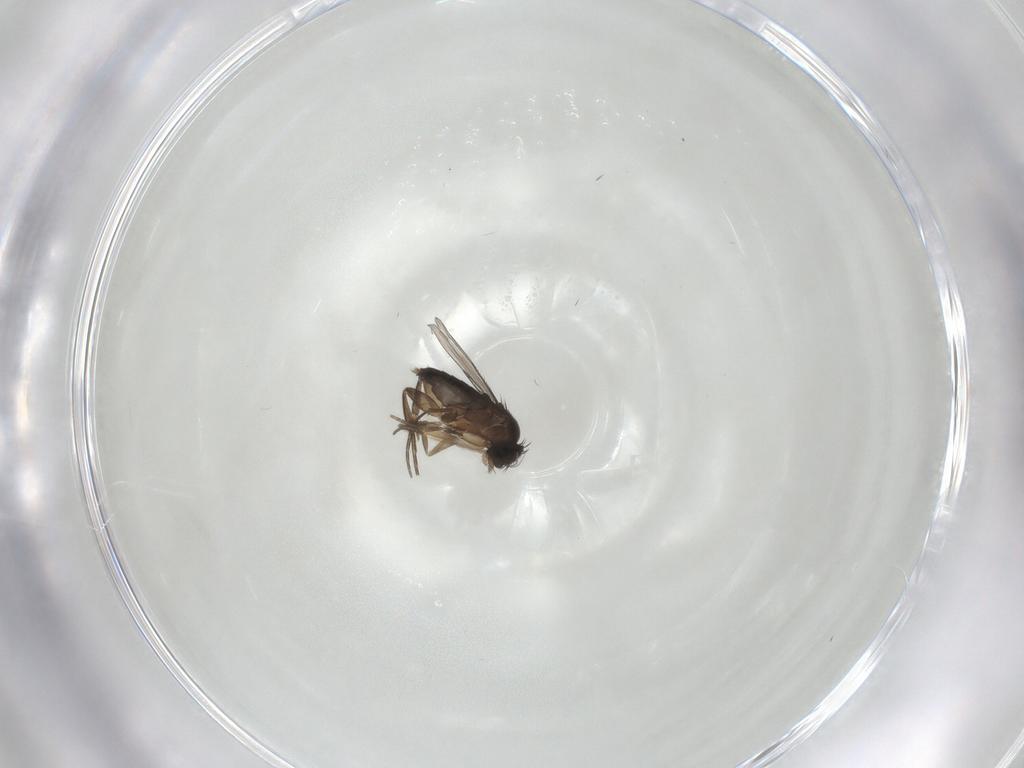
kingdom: Animalia
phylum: Arthropoda
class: Insecta
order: Diptera
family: Phoridae
